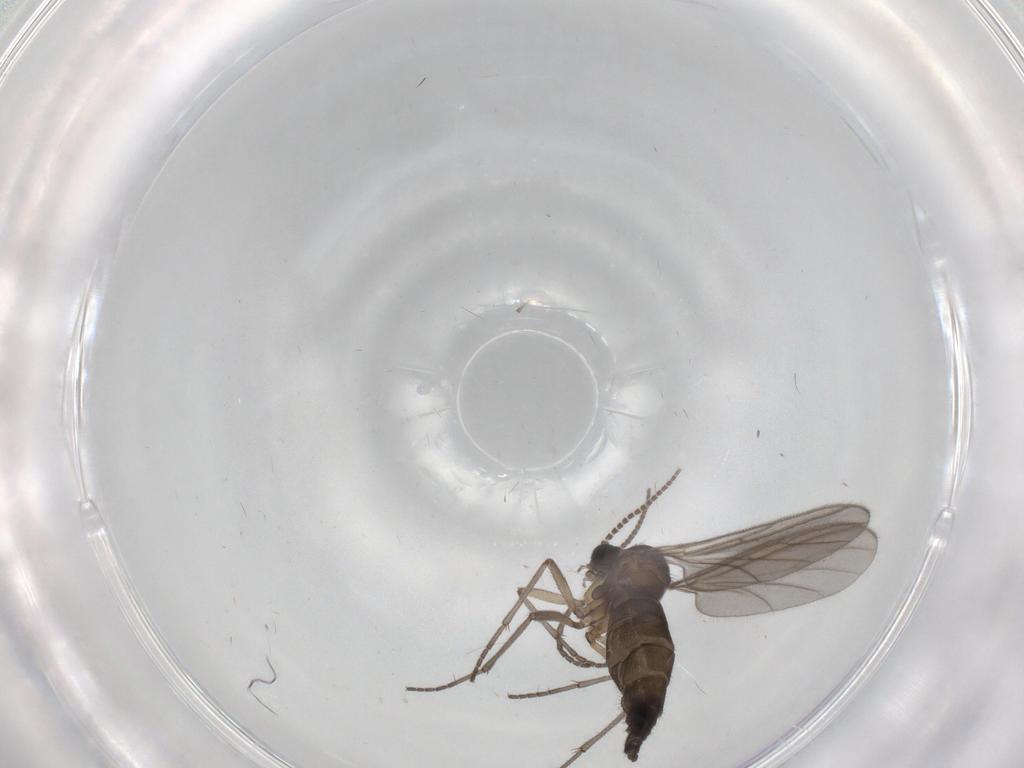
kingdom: Animalia
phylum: Arthropoda
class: Insecta
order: Diptera
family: Sciaridae
